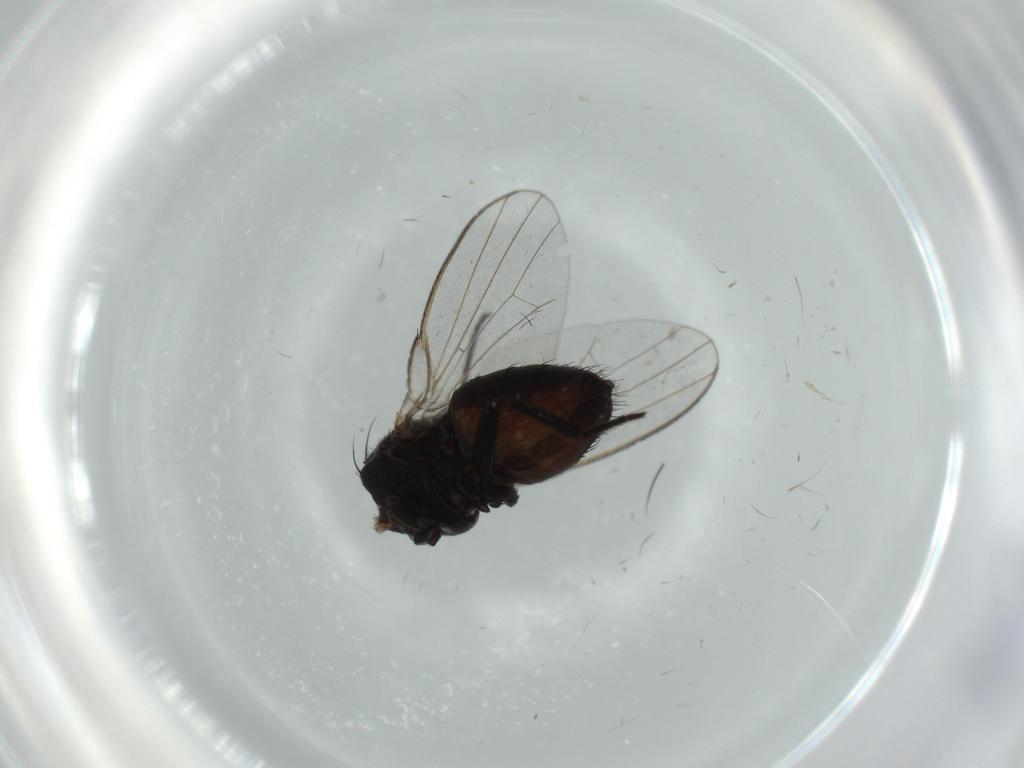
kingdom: Animalia
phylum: Arthropoda
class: Insecta
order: Diptera
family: Milichiidae
